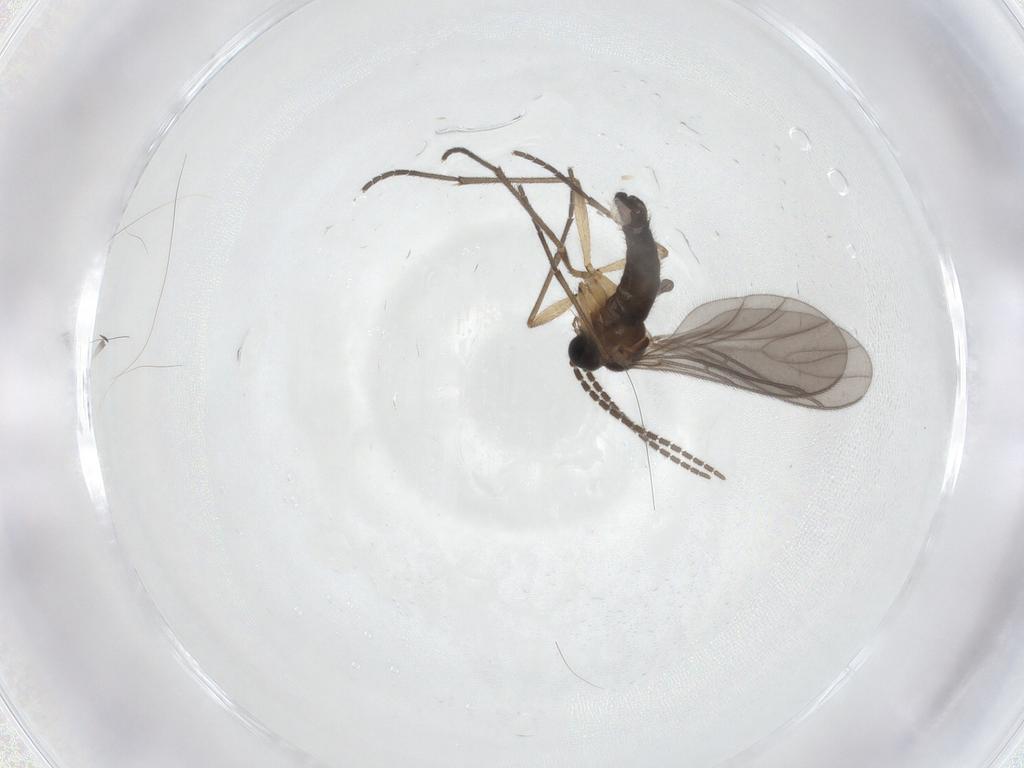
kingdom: Animalia
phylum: Arthropoda
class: Insecta
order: Diptera
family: Sciaridae
